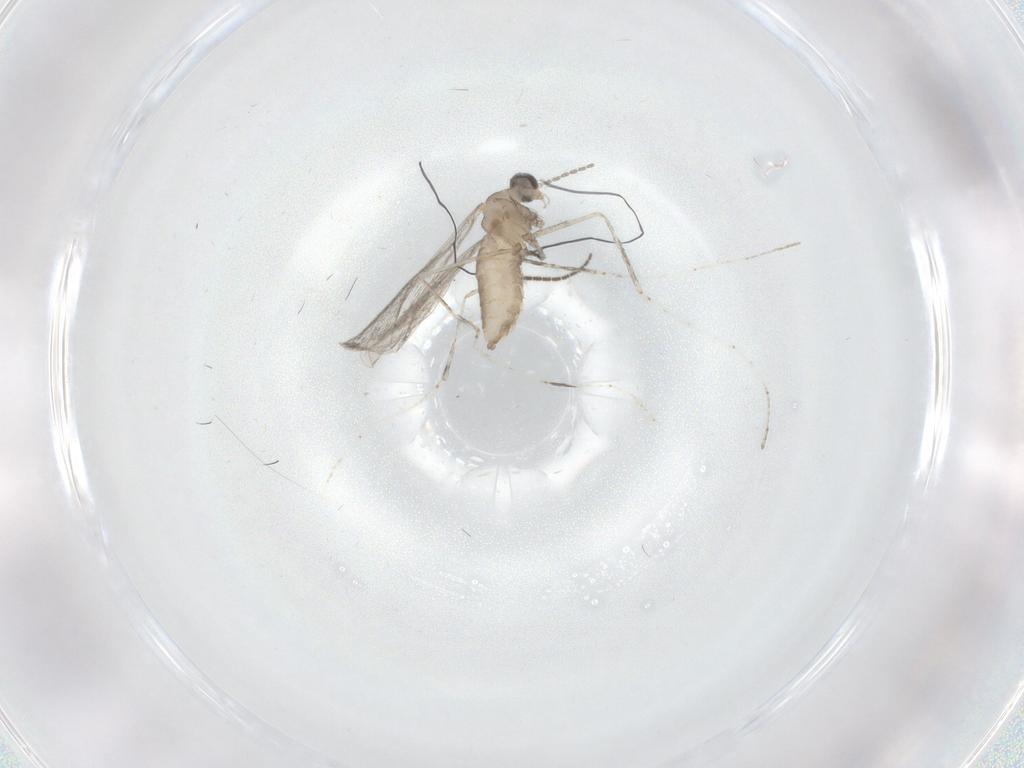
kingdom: Animalia
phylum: Arthropoda
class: Insecta
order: Diptera
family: Cecidomyiidae
